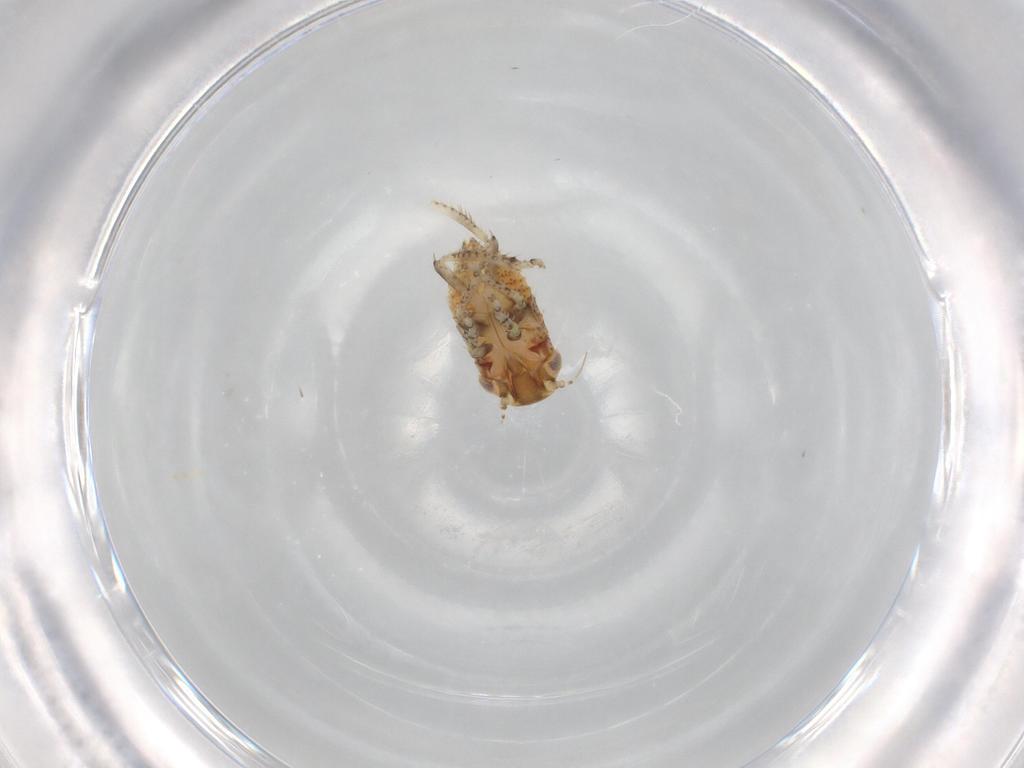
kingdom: Animalia
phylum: Arthropoda
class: Insecta
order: Hemiptera
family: Cicadellidae
